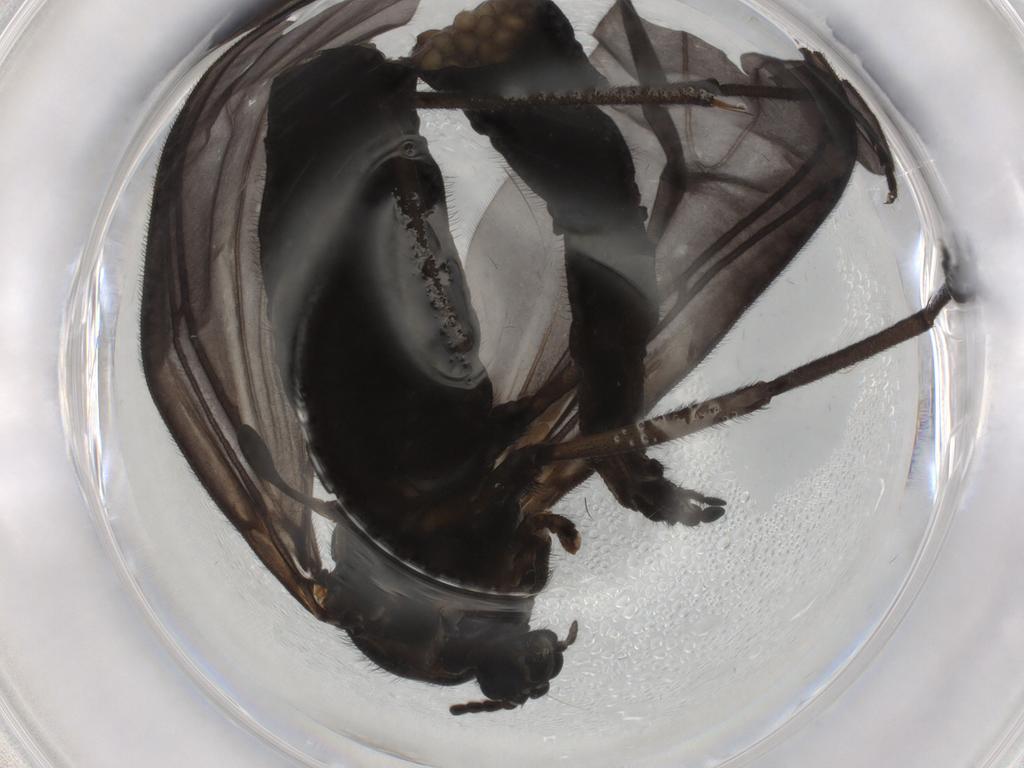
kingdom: Animalia
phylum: Arthropoda
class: Insecta
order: Diptera
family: Sciaridae
